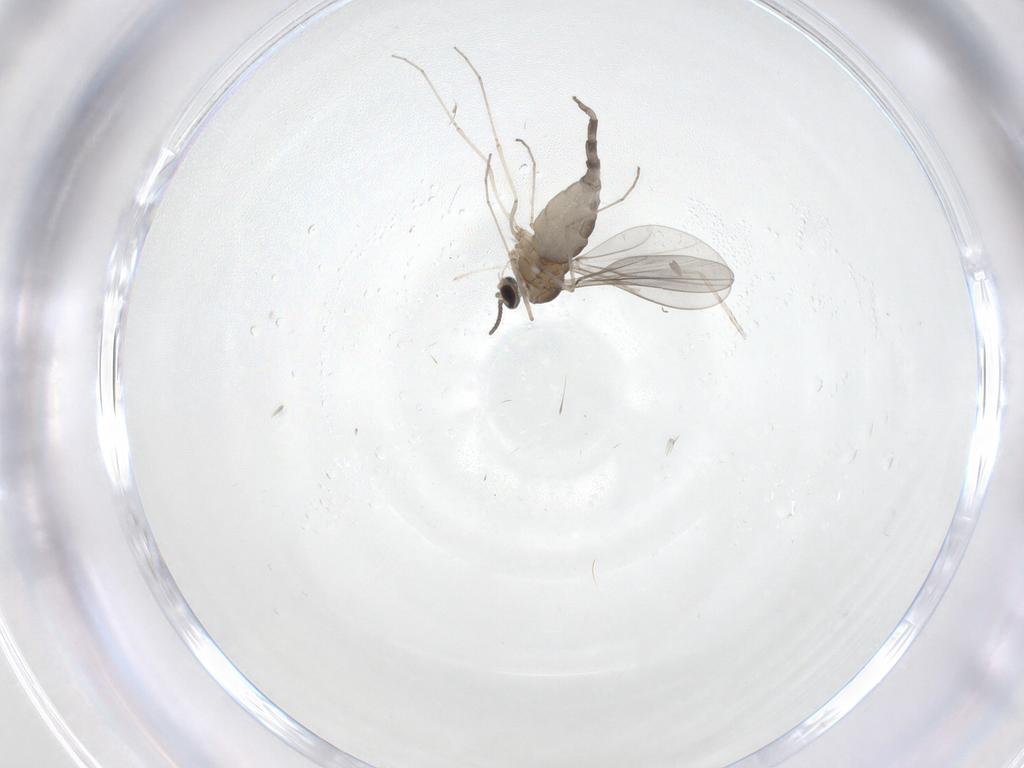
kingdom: Animalia
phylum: Arthropoda
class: Insecta
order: Diptera
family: Cecidomyiidae
